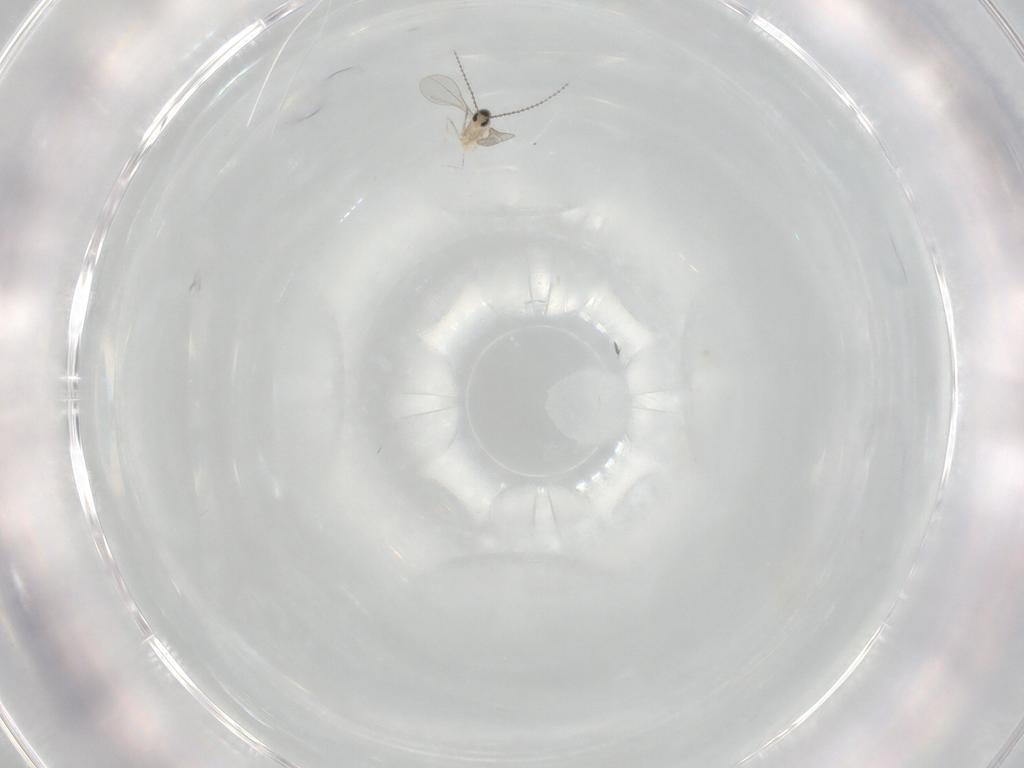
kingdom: Animalia
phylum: Arthropoda
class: Insecta
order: Diptera
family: Cecidomyiidae
